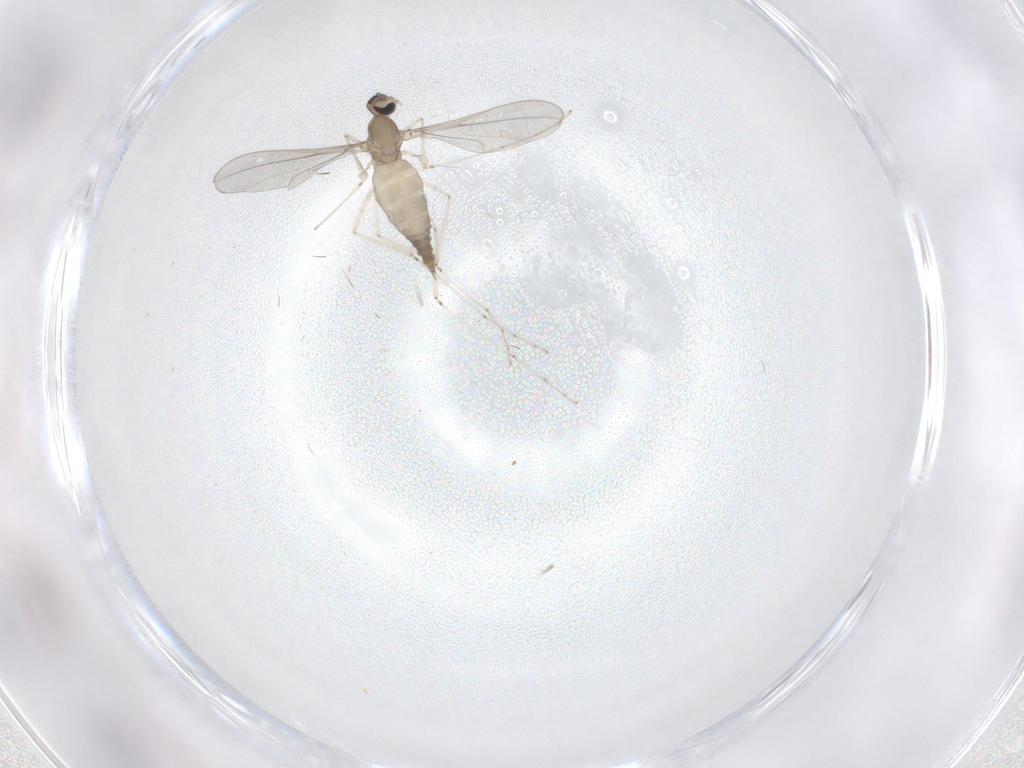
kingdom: Animalia
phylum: Arthropoda
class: Insecta
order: Diptera
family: Cecidomyiidae
